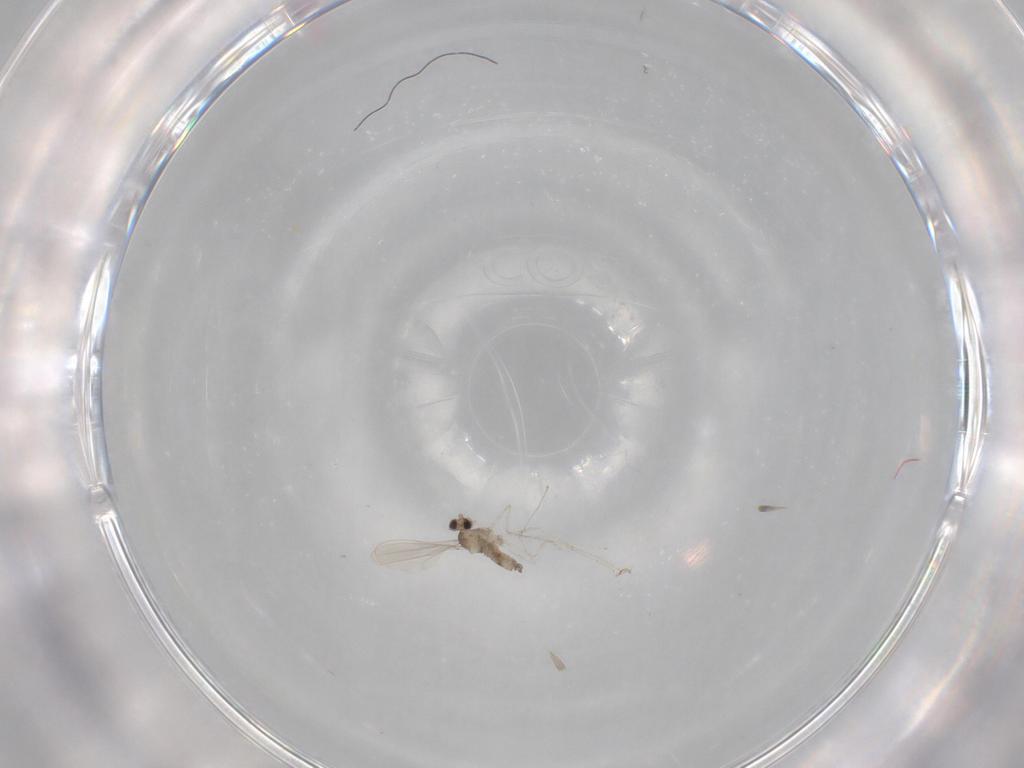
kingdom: Animalia
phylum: Arthropoda
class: Insecta
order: Diptera
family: Cecidomyiidae
